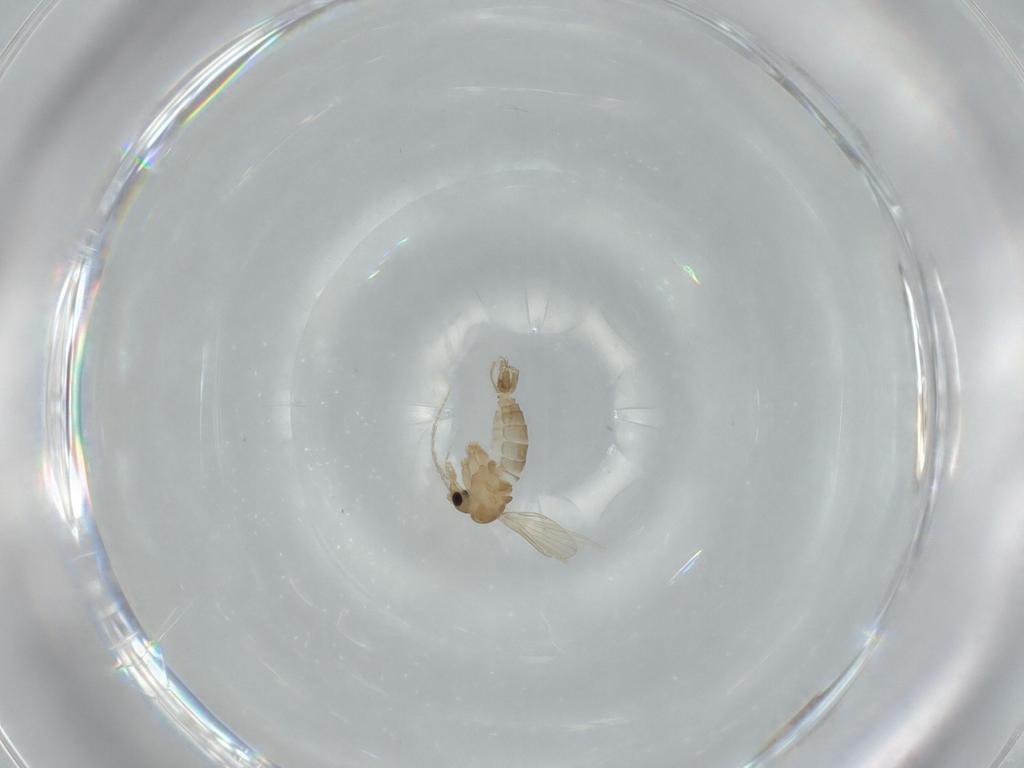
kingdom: Animalia
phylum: Arthropoda
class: Insecta
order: Diptera
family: Psychodidae
